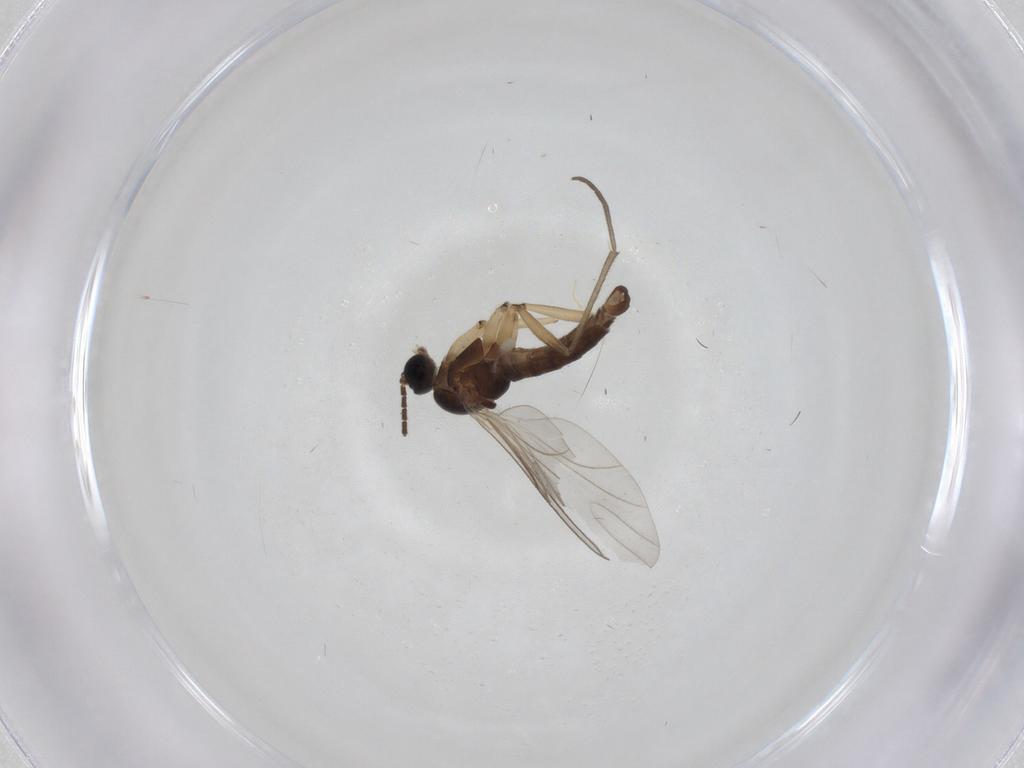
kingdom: Animalia
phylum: Arthropoda
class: Insecta
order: Diptera
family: Sciaridae
